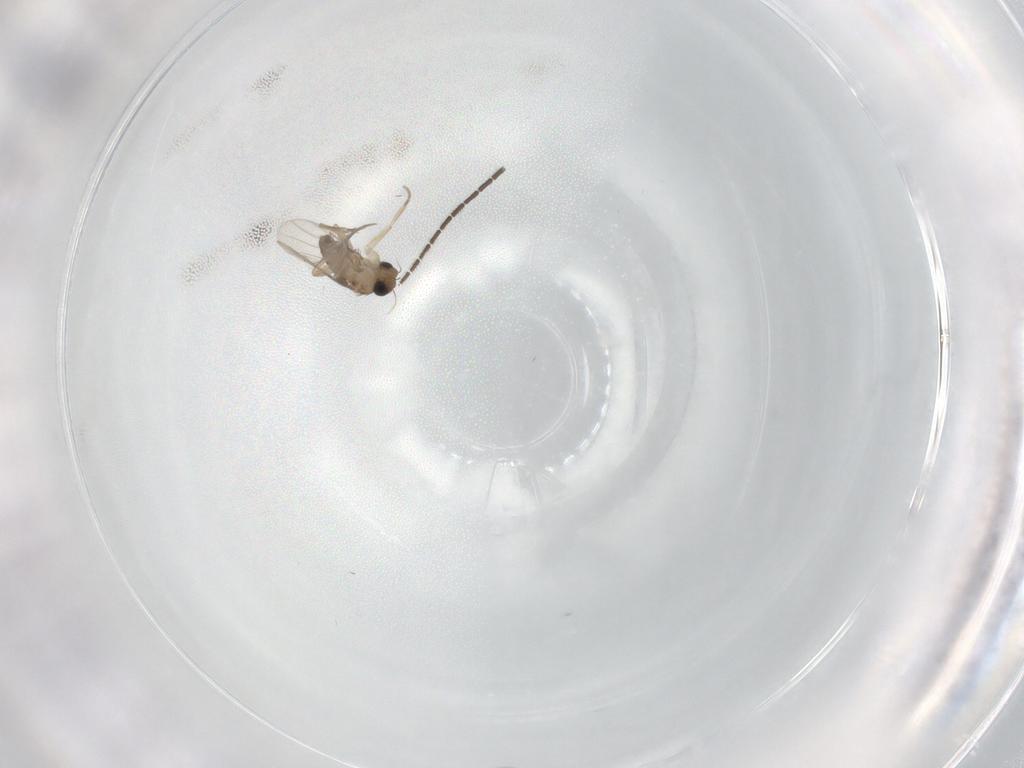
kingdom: Animalia
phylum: Arthropoda
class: Insecta
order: Diptera
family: Sciaridae
